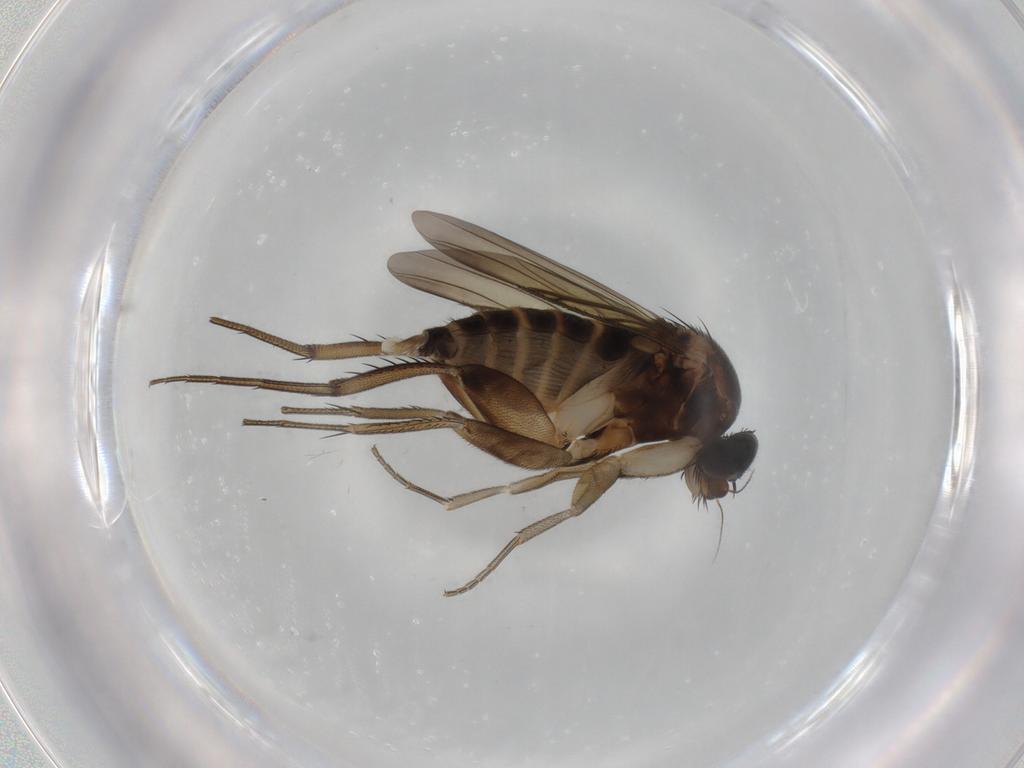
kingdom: Animalia
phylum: Arthropoda
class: Insecta
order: Diptera
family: Phoridae
